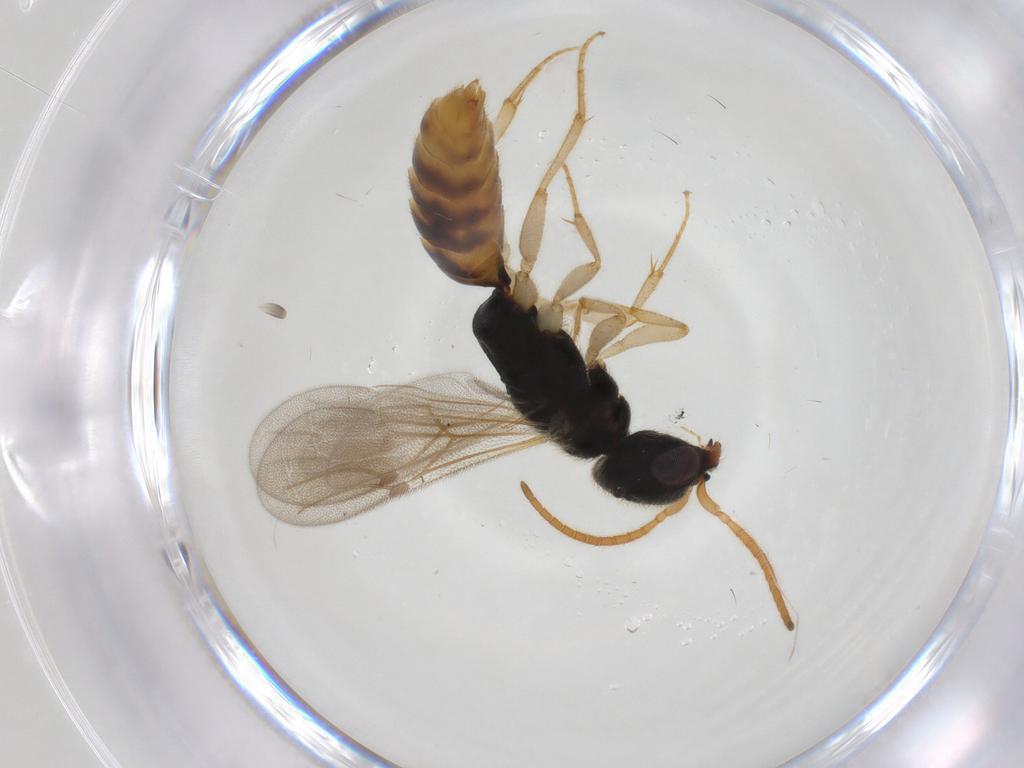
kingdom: Animalia
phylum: Arthropoda
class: Insecta
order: Hymenoptera
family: Bethylidae
